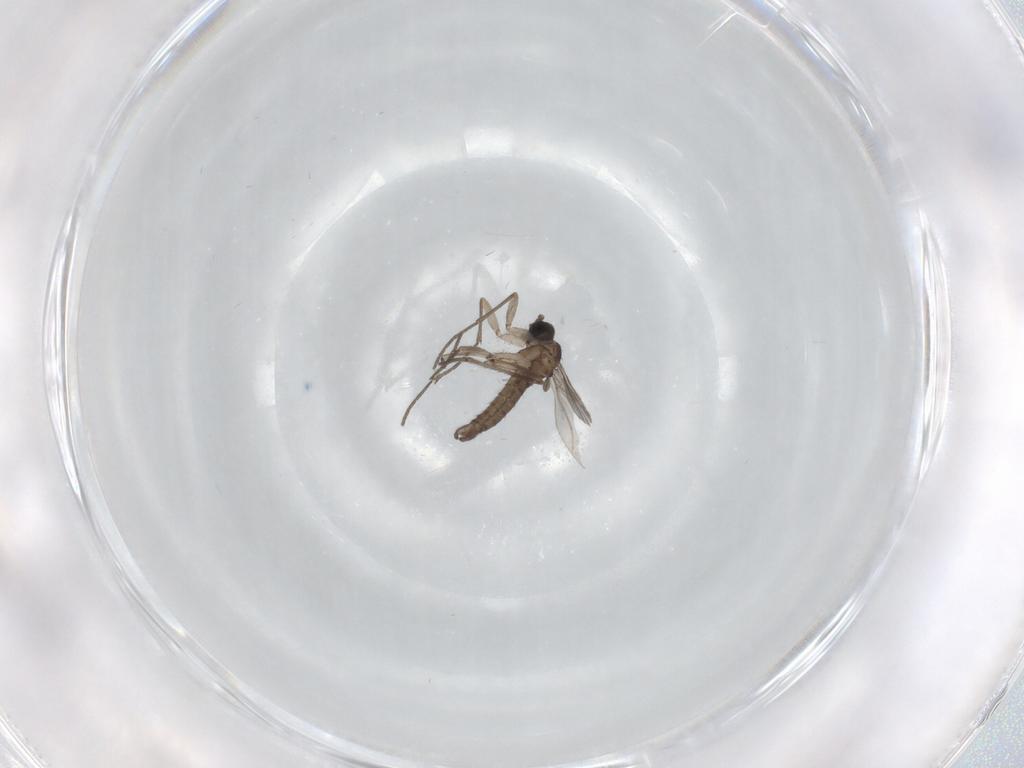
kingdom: Animalia
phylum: Arthropoda
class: Insecta
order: Diptera
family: Sciaridae
